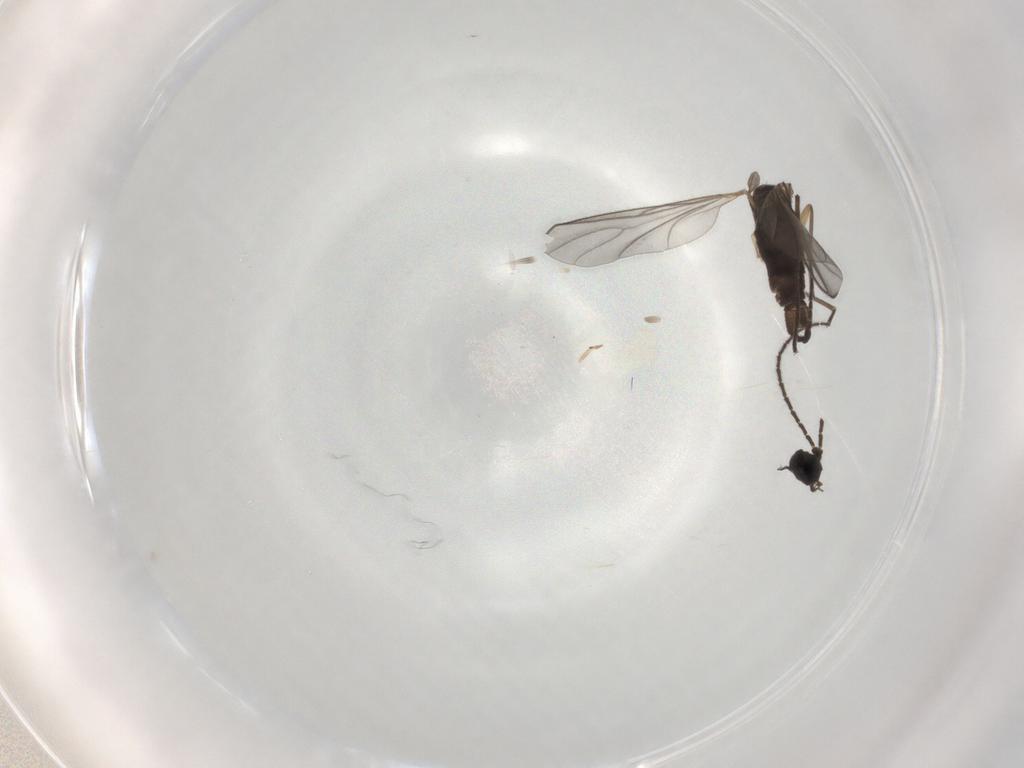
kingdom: Animalia
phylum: Arthropoda
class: Insecta
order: Diptera
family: Sciaridae
